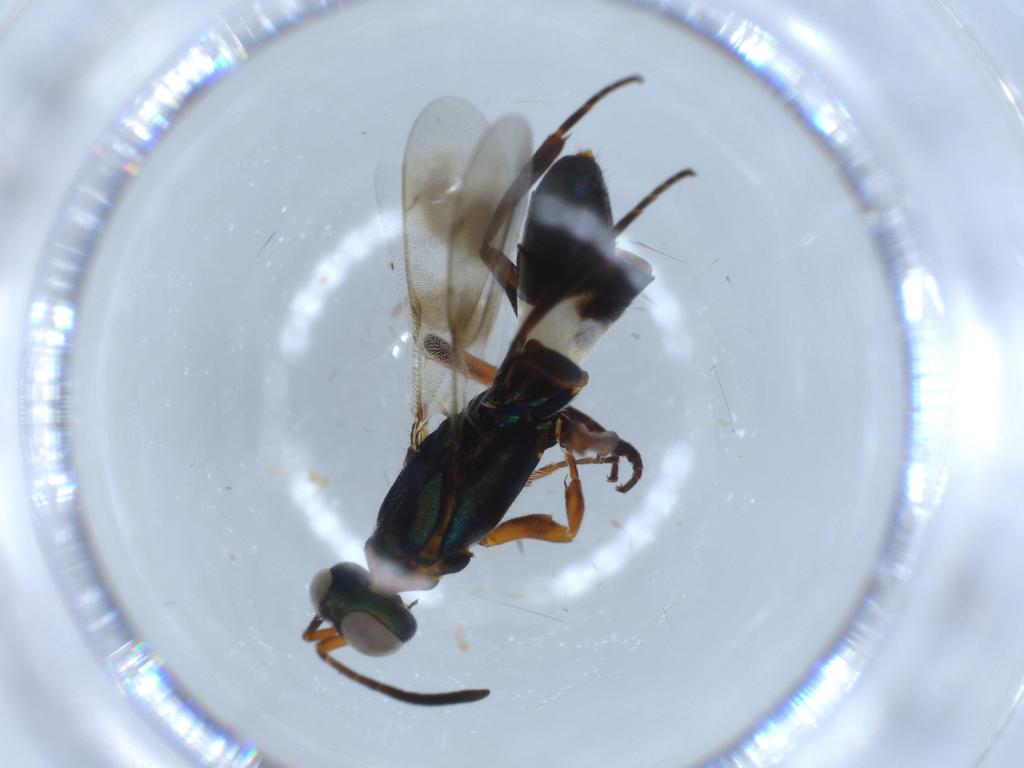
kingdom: Animalia
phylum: Arthropoda
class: Insecta
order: Hymenoptera
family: Eupelmidae
